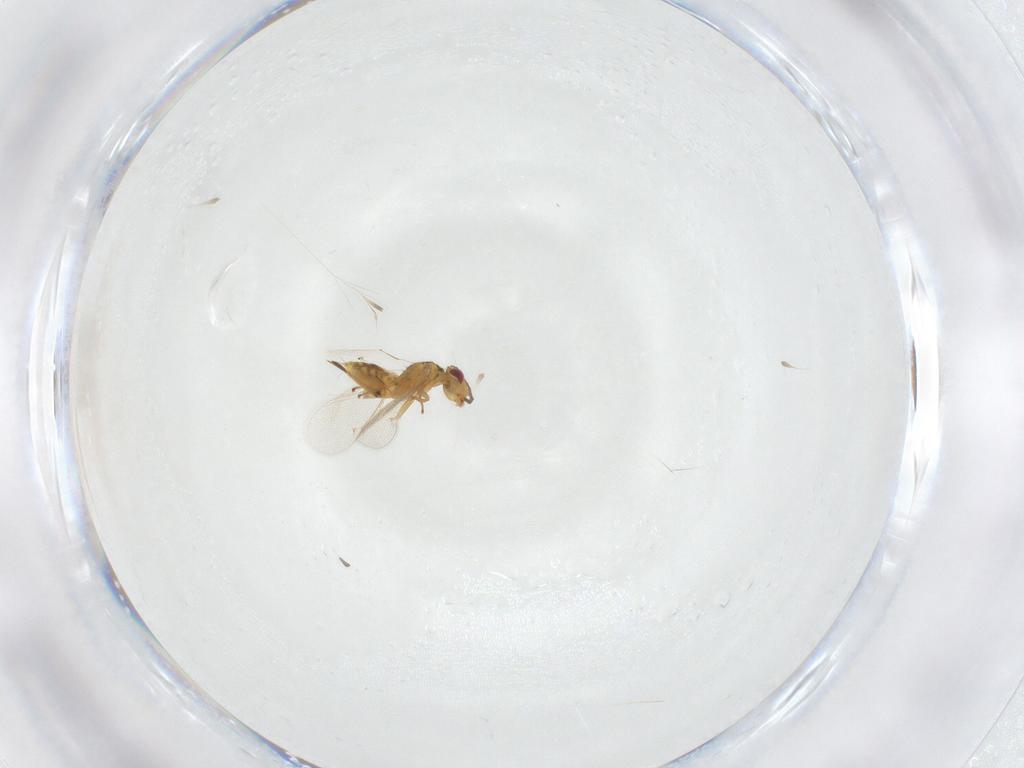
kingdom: Animalia
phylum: Arthropoda
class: Insecta
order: Hymenoptera
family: Eulophidae
